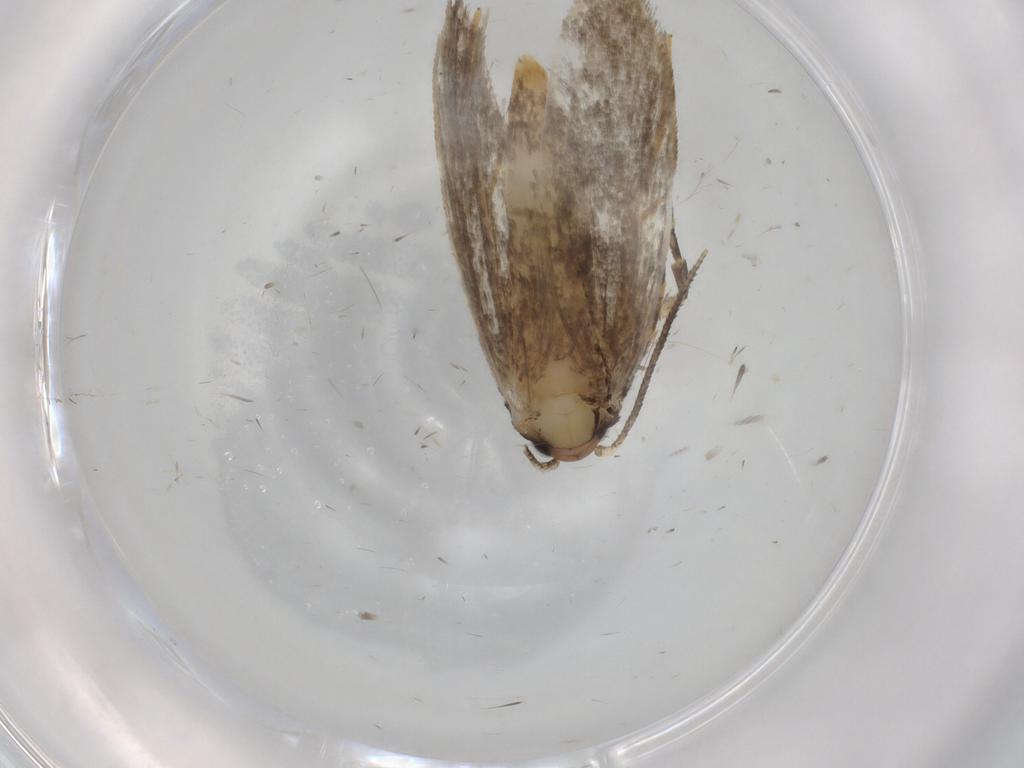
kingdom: Animalia
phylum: Arthropoda
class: Insecta
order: Lepidoptera
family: Tineidae
